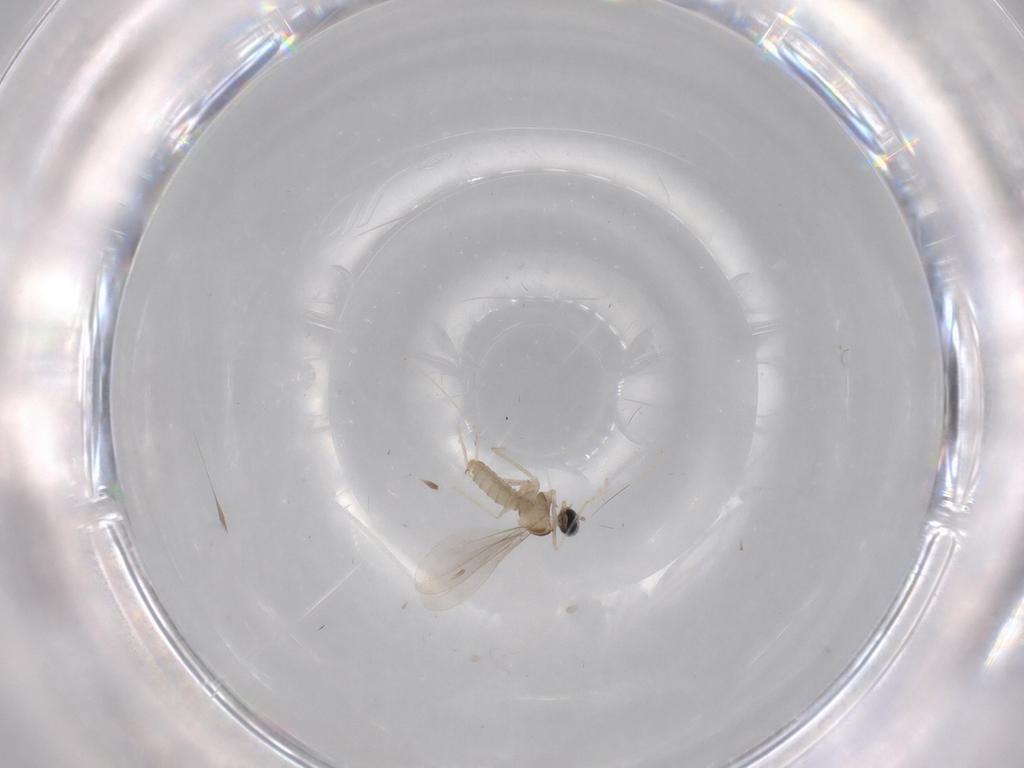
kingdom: Animalia
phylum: Arthropoda
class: Insecta
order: Diptera
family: Cecidomyiidae
